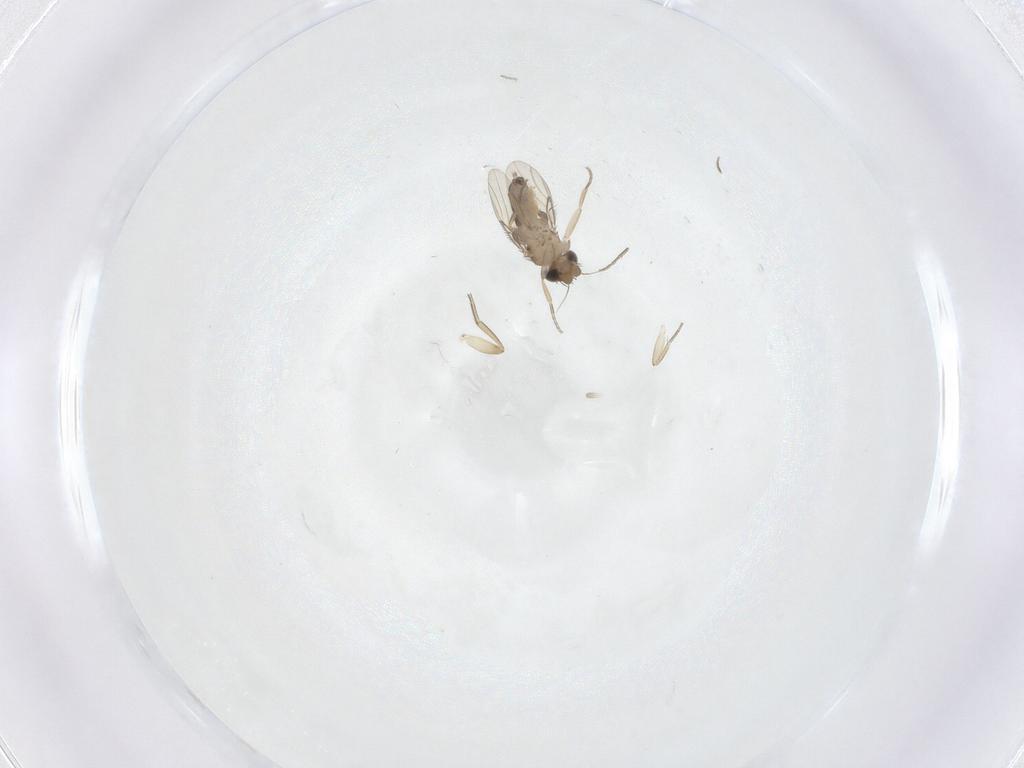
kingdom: Animalia
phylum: Arthropoda
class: Insecta
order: Diptera
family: Phoridae
